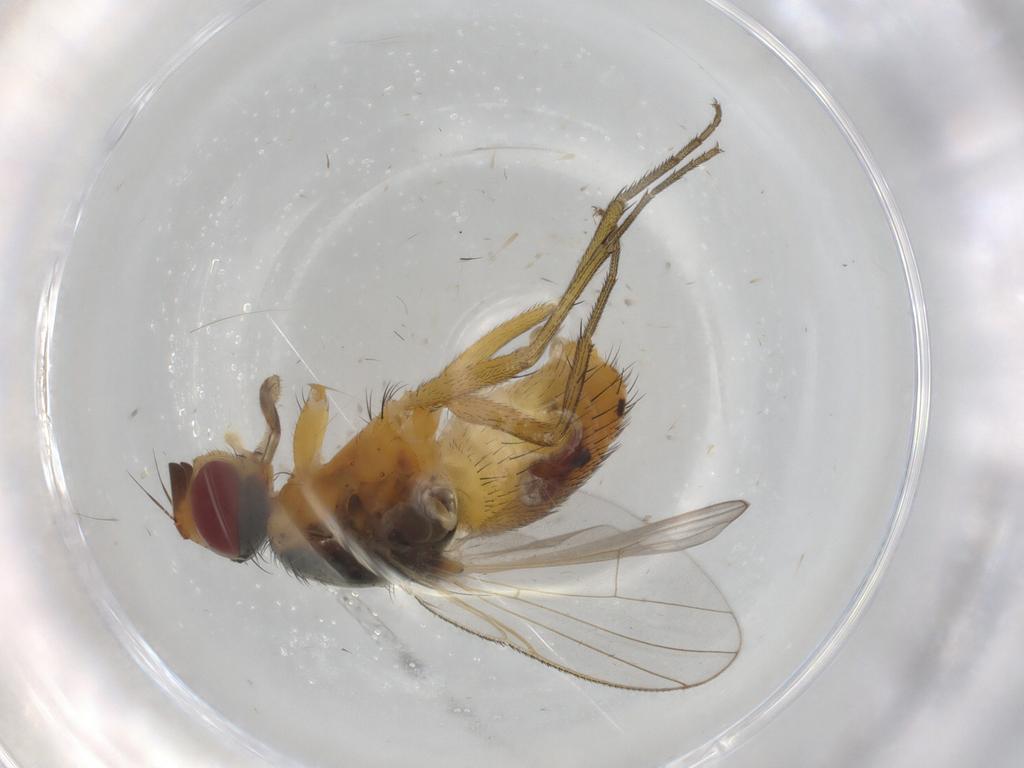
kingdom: Animalia
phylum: Arthropoda
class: Insecta
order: Diptera
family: Muscidae
